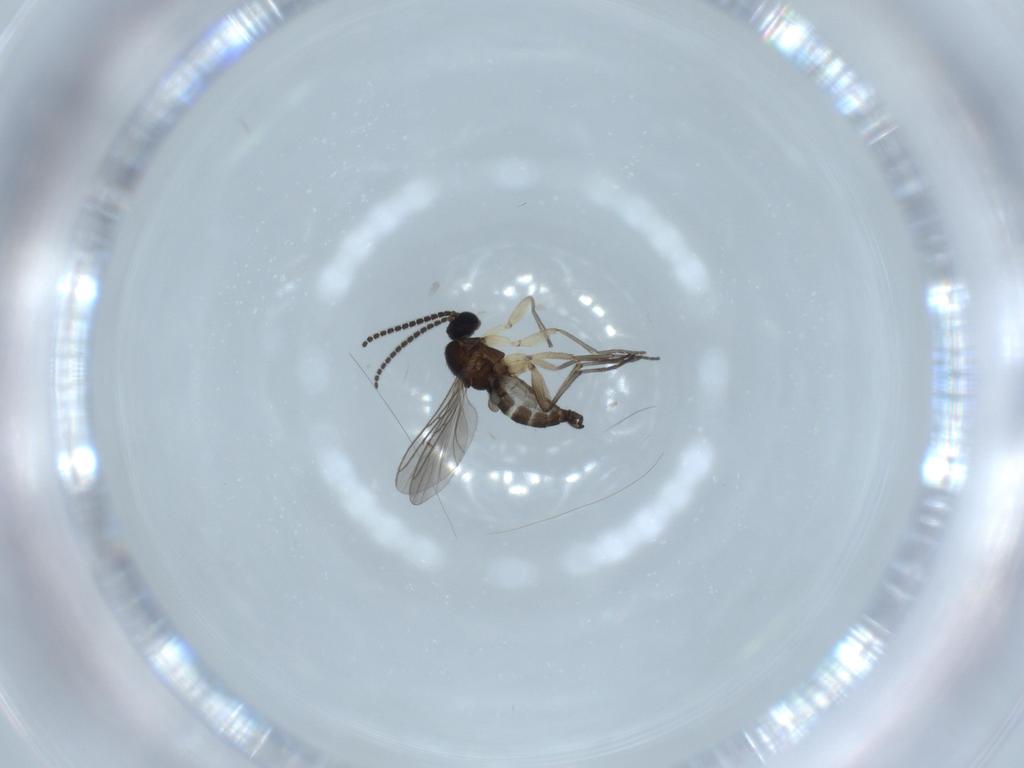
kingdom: Animalia
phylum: Arthropoda
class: Insecta
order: Diptera
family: Sciaridae
